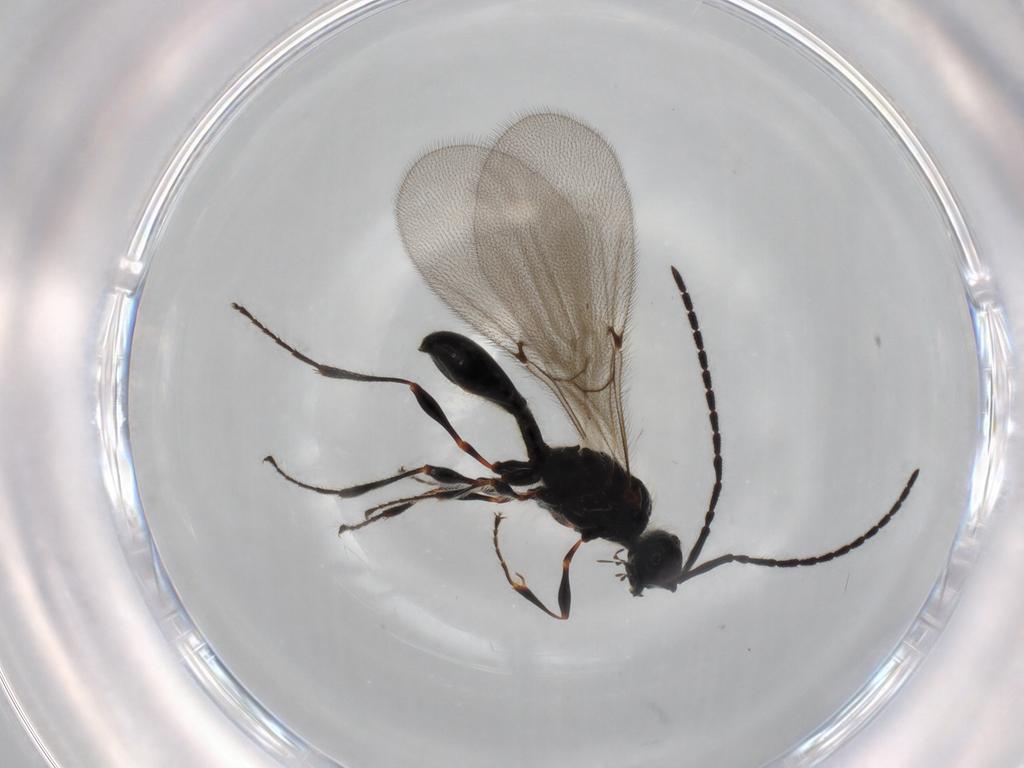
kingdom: Animalia
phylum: Arthropoda
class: Insecta
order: Hymenoptera
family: Diapriidae
